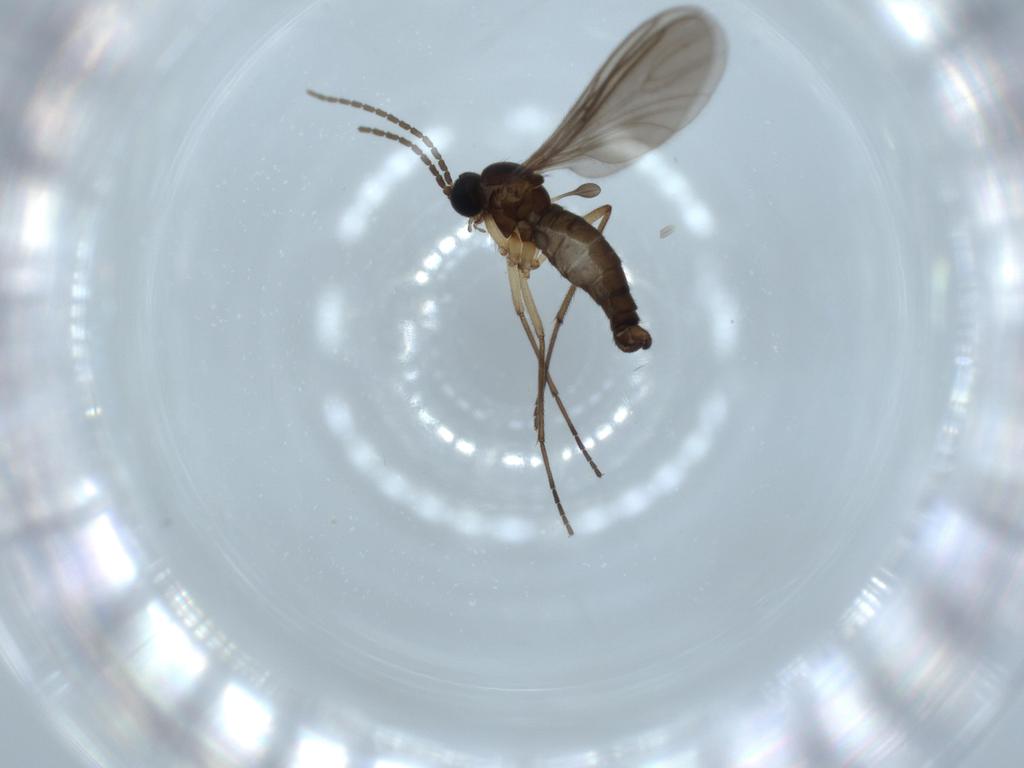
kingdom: Animalia
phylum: Arthropoda
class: Insecta
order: Diptera
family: Sciaridae
